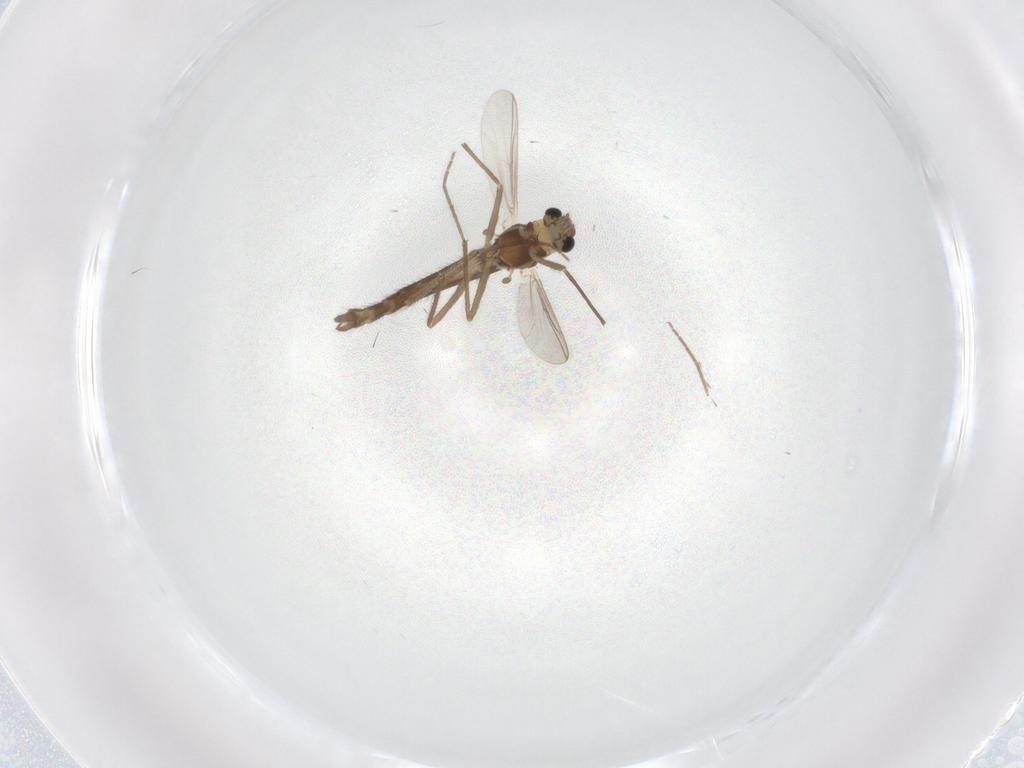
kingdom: Animalia
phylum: Arthropoda
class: Insecta
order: Diptera
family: Chironomidae
